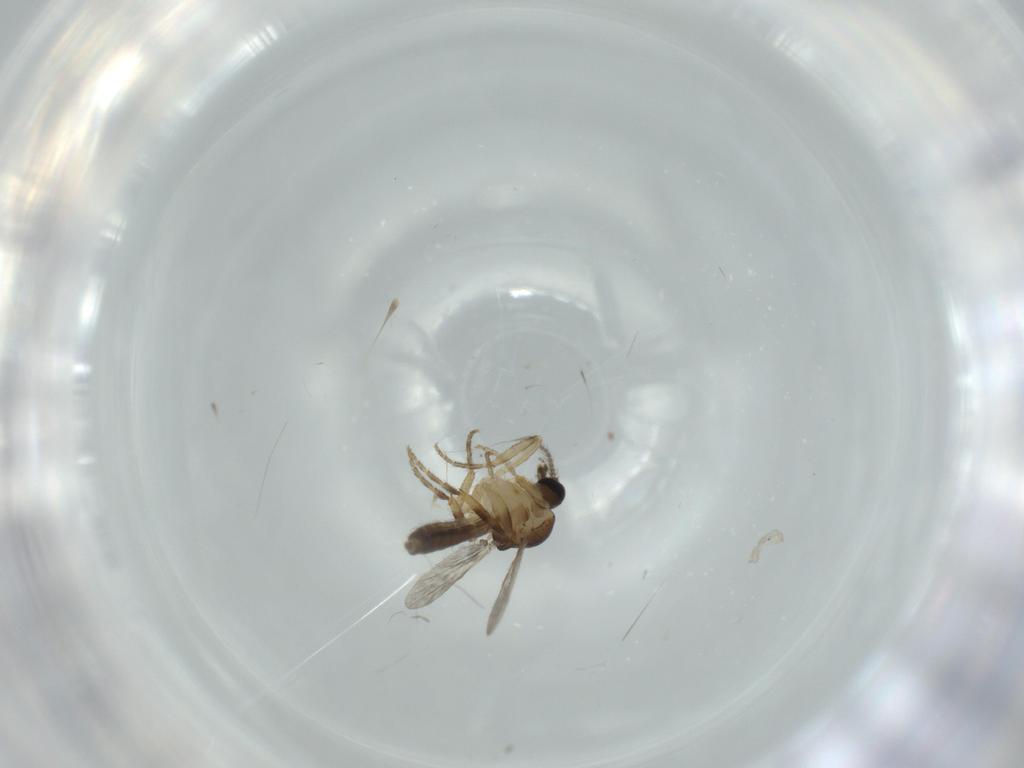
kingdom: Animalia
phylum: Arthropoda
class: Insecta
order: Diptera
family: Ceratopogonidae
